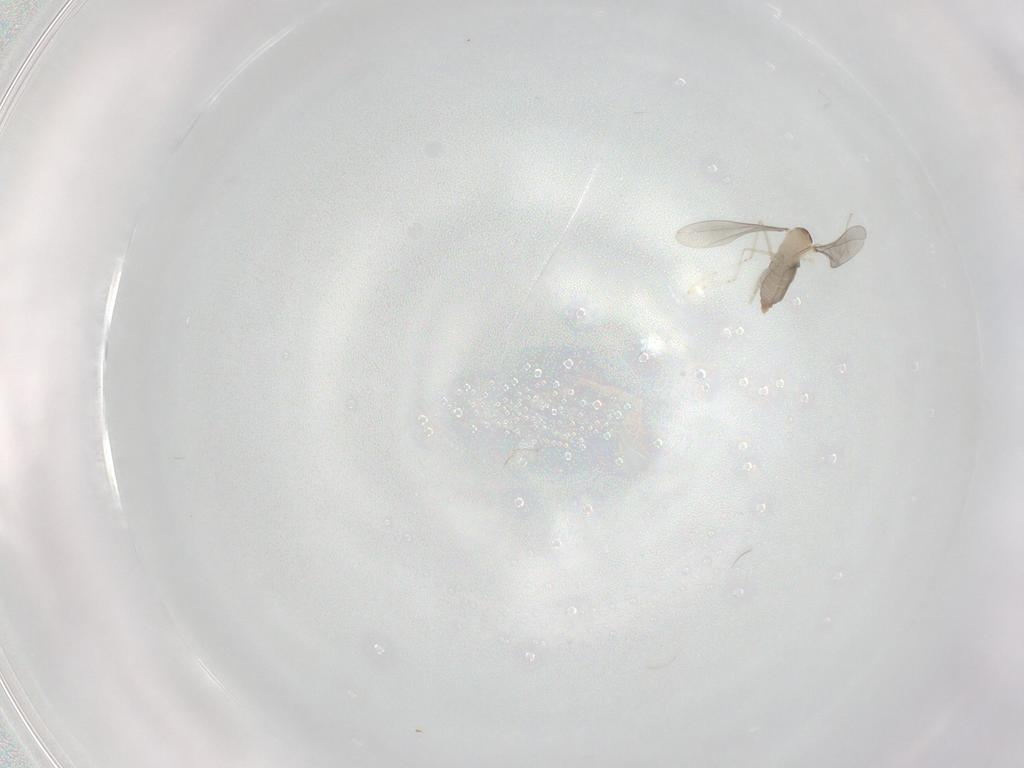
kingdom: Animalia
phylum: Arthropoda
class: Insecta
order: Diptera
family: Cecidomyiidae
